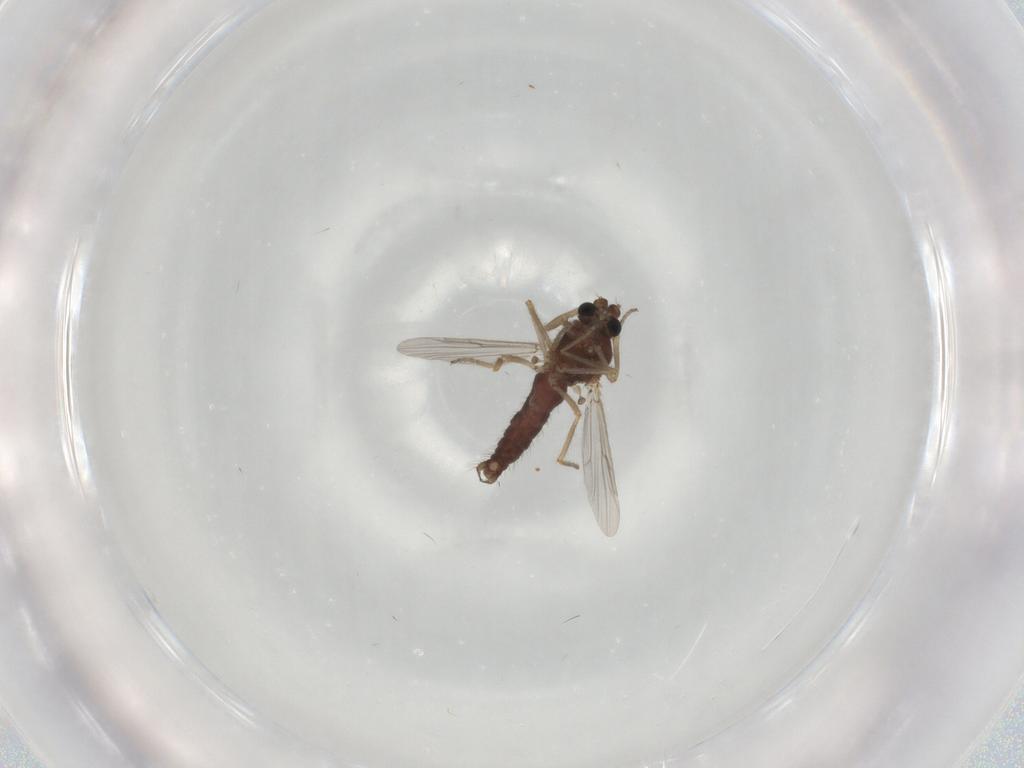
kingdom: Animalia
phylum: Arthropoda
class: Insecta
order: Diptera
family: Ceratopogonidae
